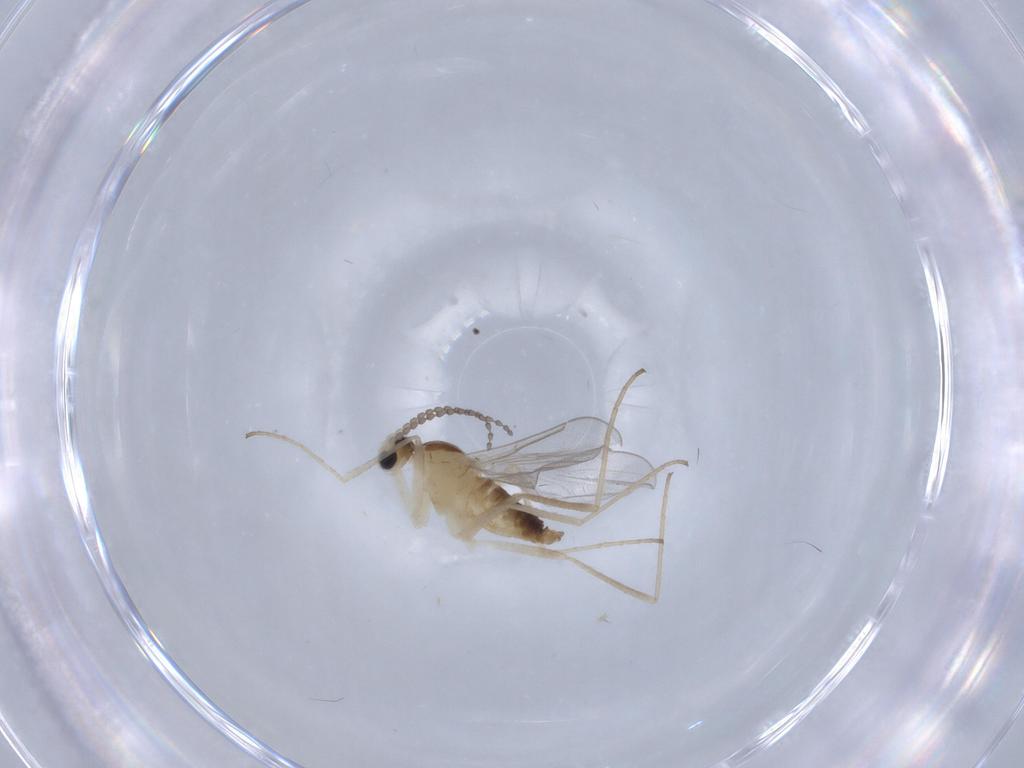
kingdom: Animalia
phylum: Arthropoda
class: Insecta
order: Diptera
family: Cecidomyiidae
